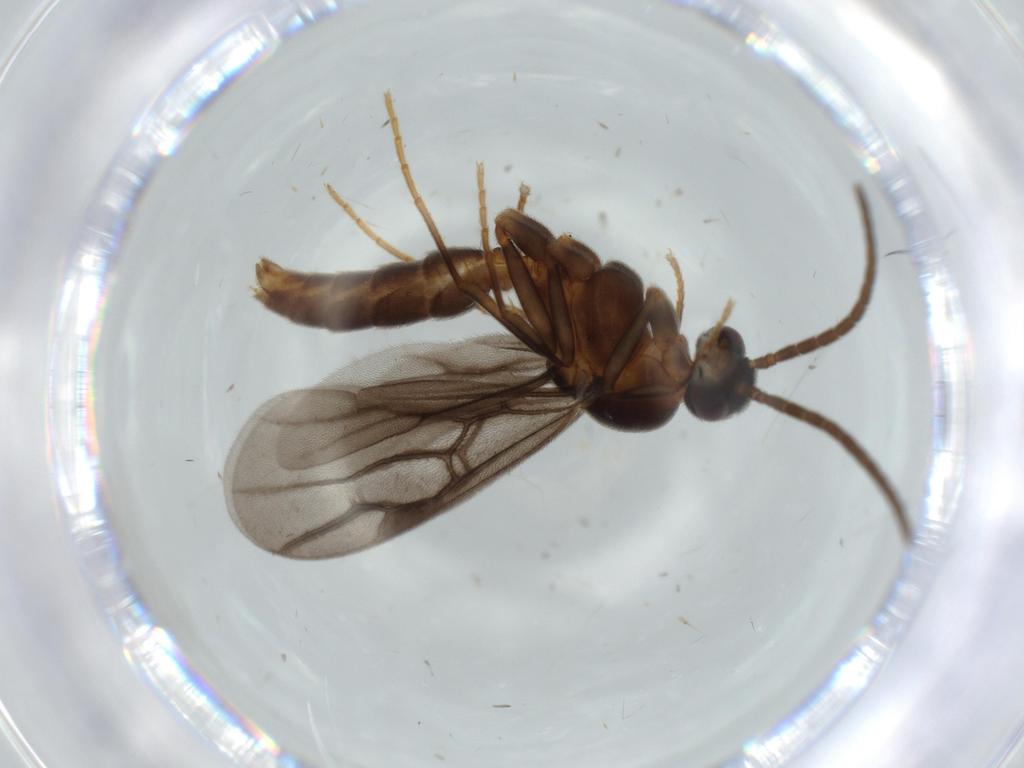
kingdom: Animalia
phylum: Arthropoda
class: Insecta
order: Hymenoptera
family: Formicidae
